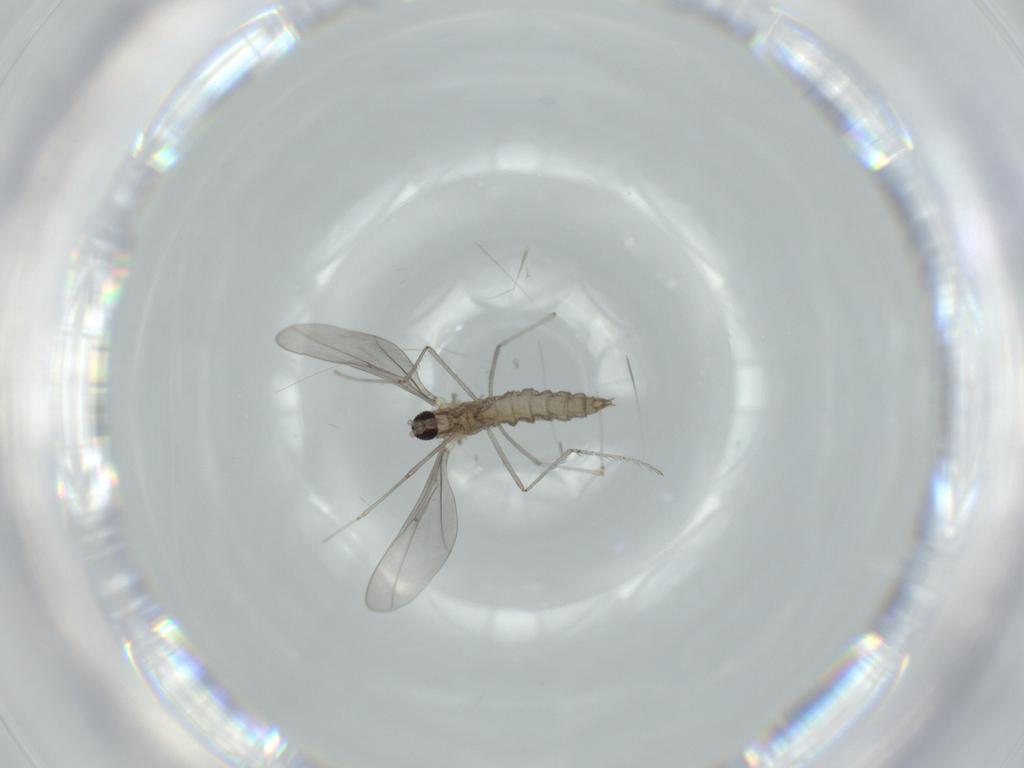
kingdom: Animalia
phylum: Arthropoda
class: Insecta
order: Diptera
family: Cecidomyiidae
